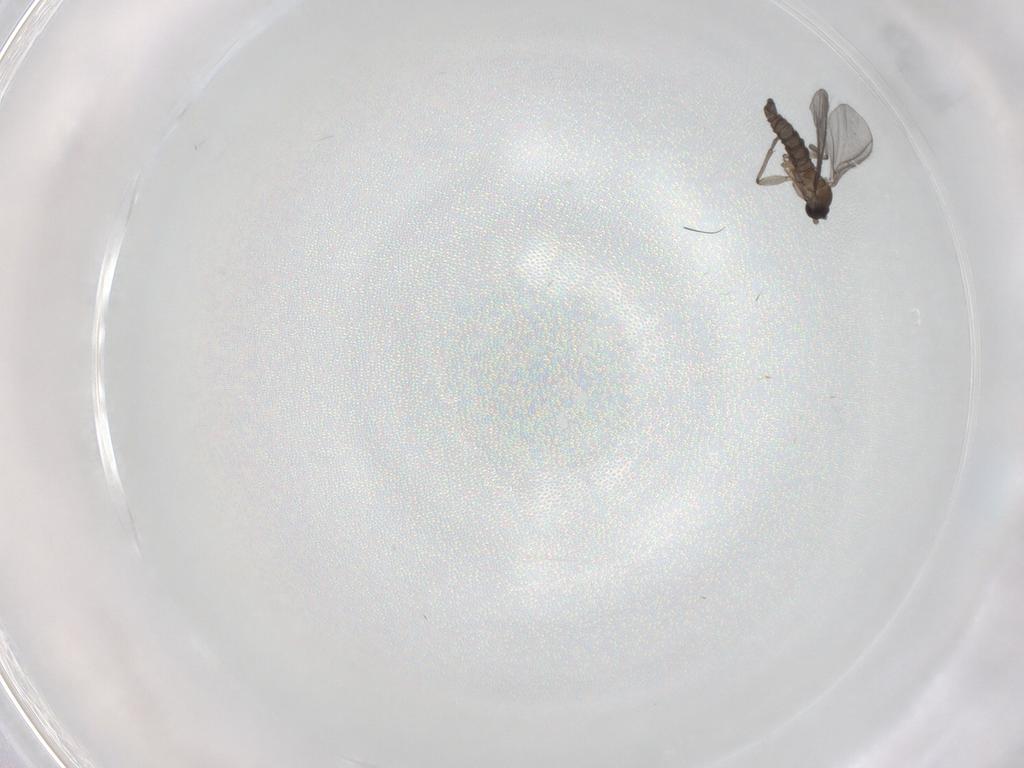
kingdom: Animalia
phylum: Arthropoda
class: Insecta
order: Diptera
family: Sciaridae
